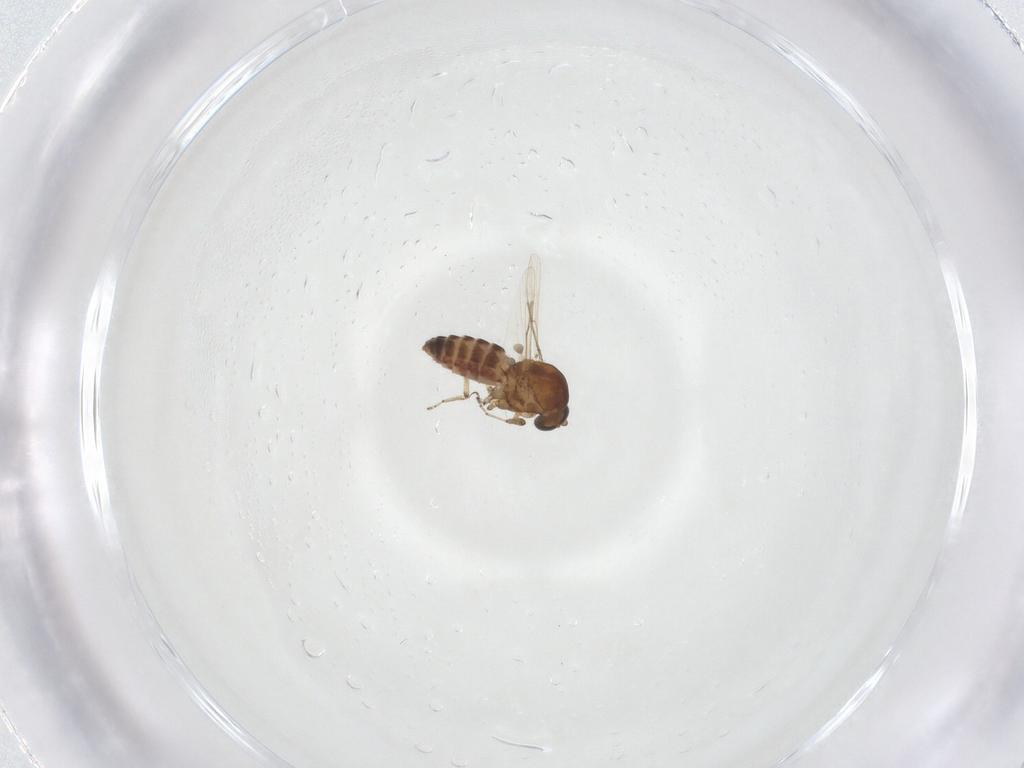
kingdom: Animalia
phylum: Arthropoda
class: Insecta
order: Diptera
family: Ceratopogonidae
